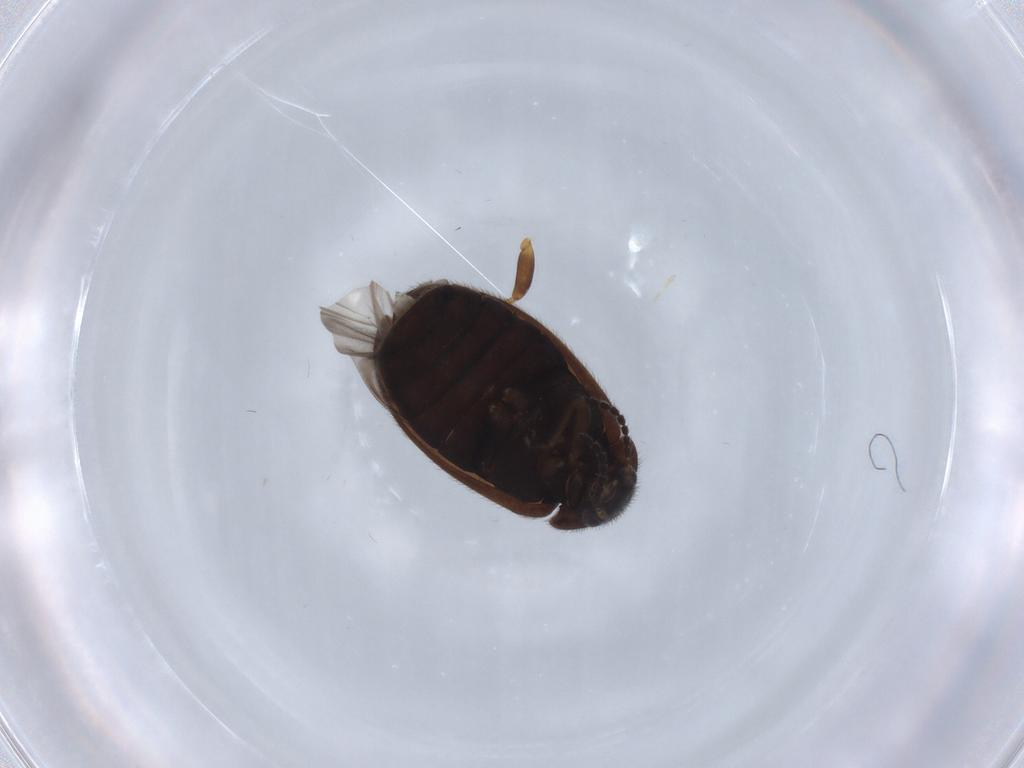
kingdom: Animalia
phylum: Arthropoda
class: Insecta
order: Coleoptera
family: Scirtidae
